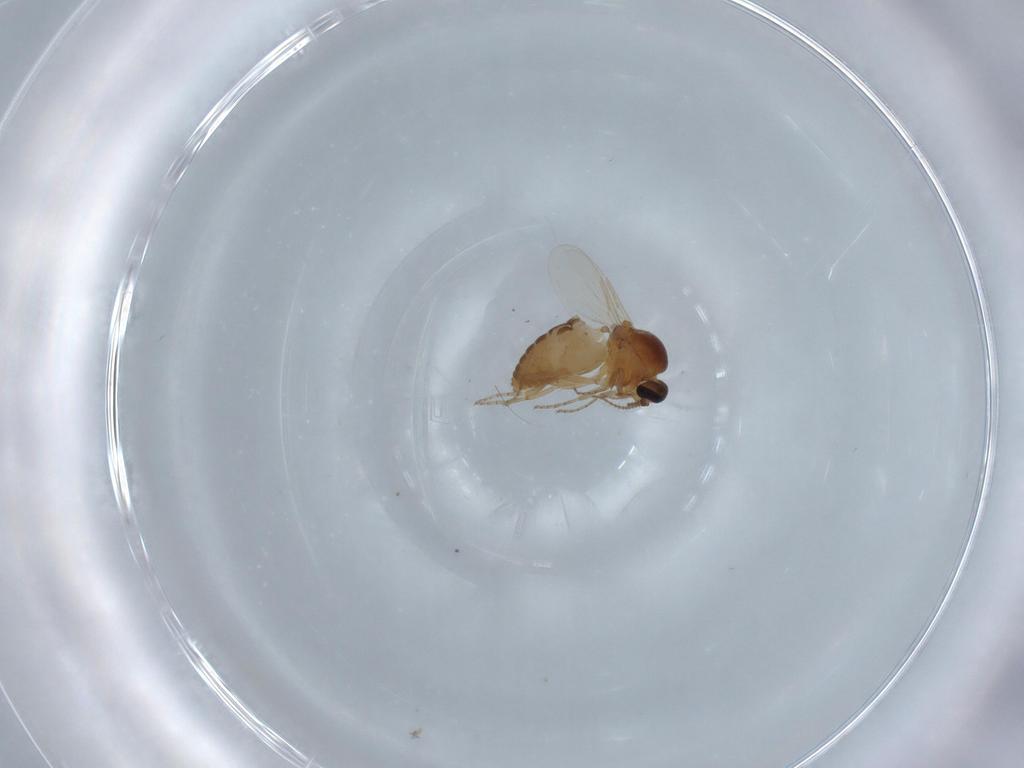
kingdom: Animalia
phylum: Arthropoda
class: Insecta
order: Diptera
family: Ceratopogonidae
